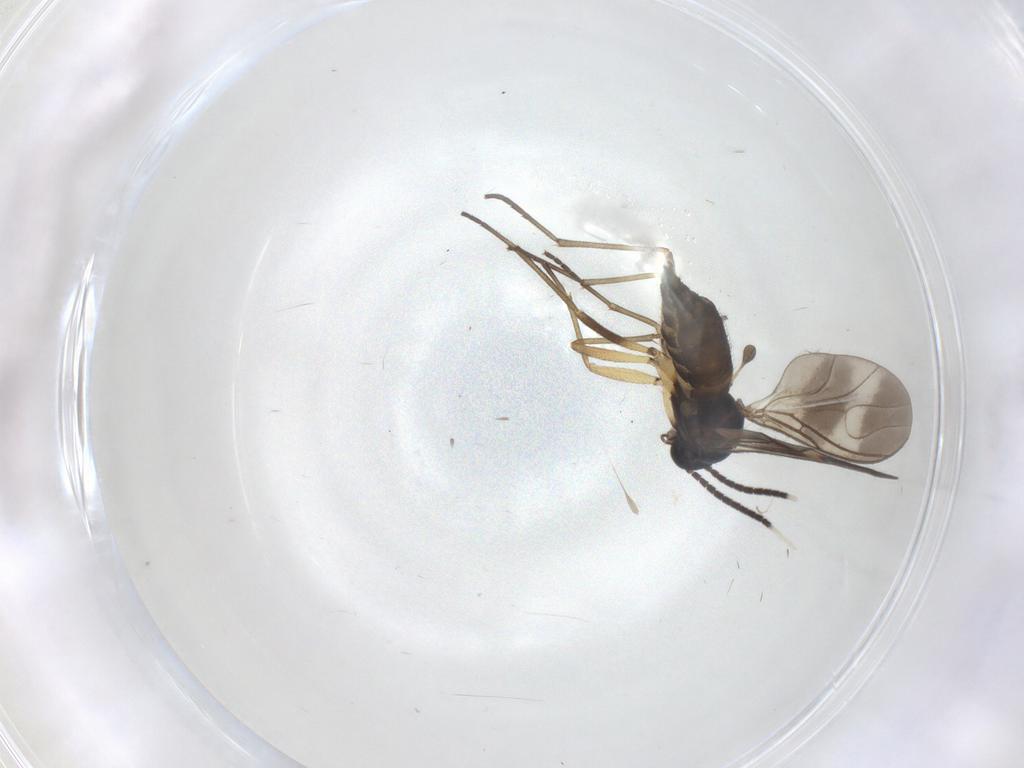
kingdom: Animalia
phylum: Arthropoda
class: Insecta
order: Diptera
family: Sciaridae
